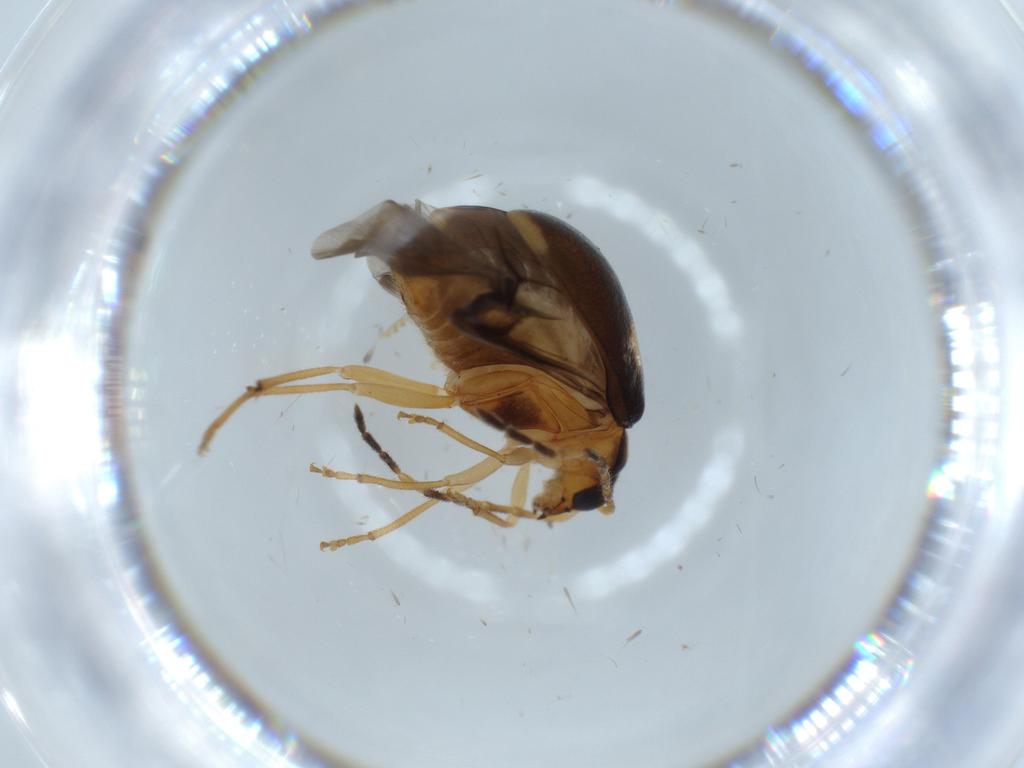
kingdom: Animalia
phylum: Arthropoda
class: Insecta
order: Coleoptera
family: Chrysomelidae
